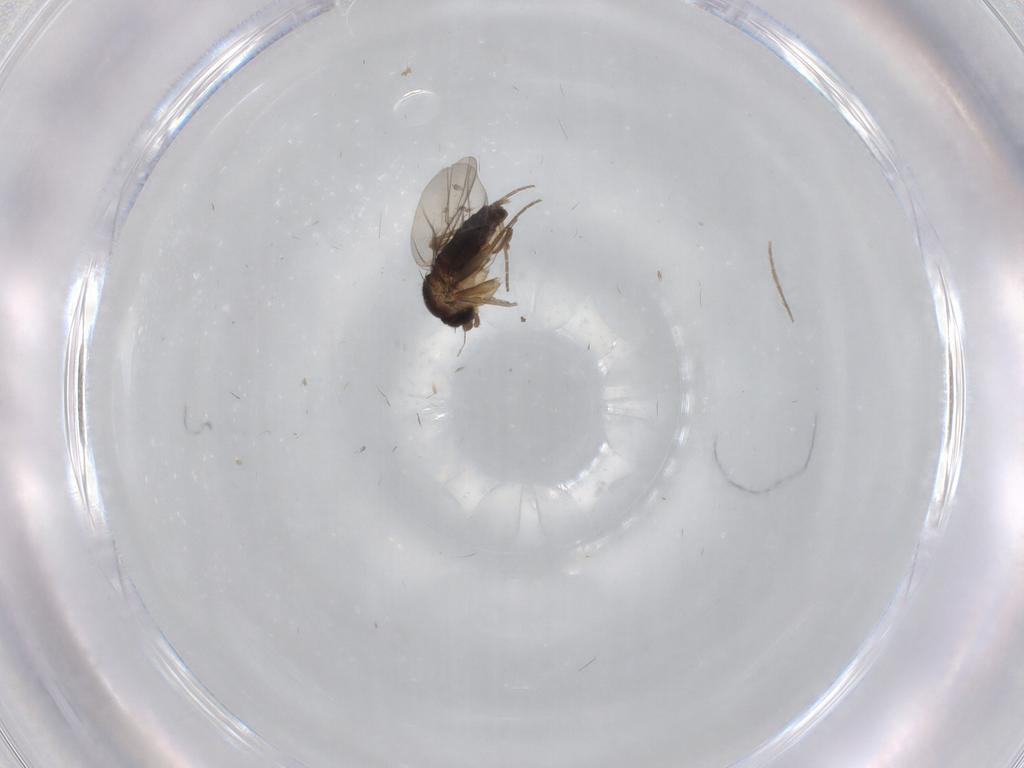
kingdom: Animalia
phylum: Arthropoda
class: Insecta
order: Diptera
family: Phoridae
